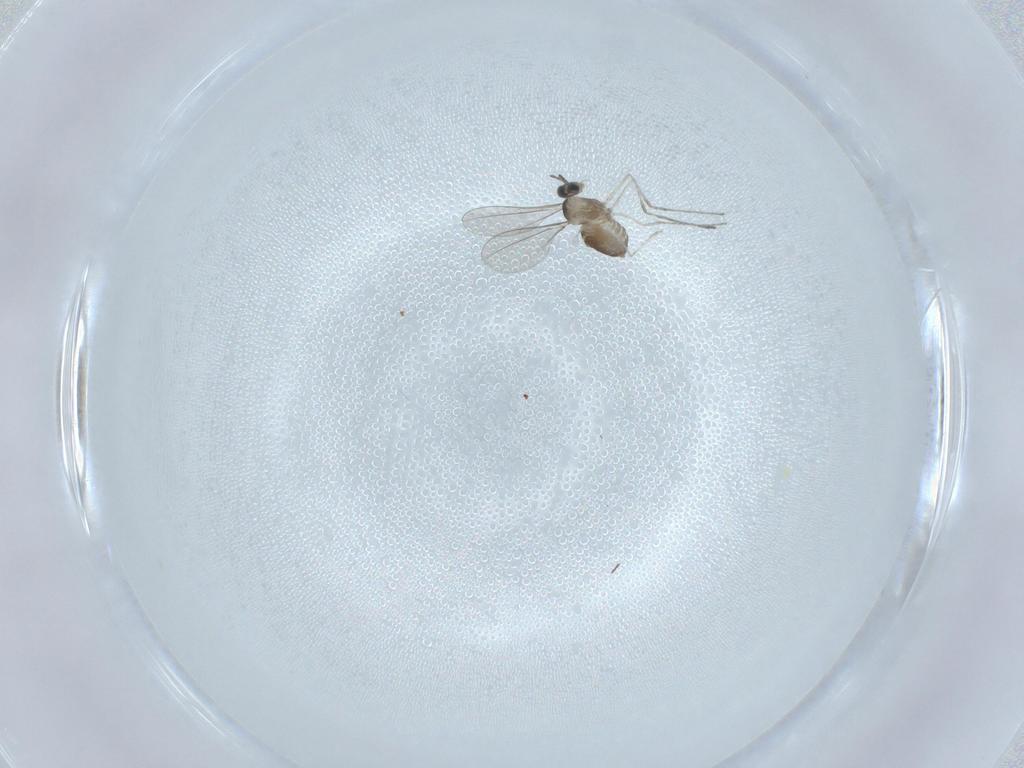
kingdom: Animalia
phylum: Arthropoda
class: Insecta
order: Diptera
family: Cecidomyiidae
